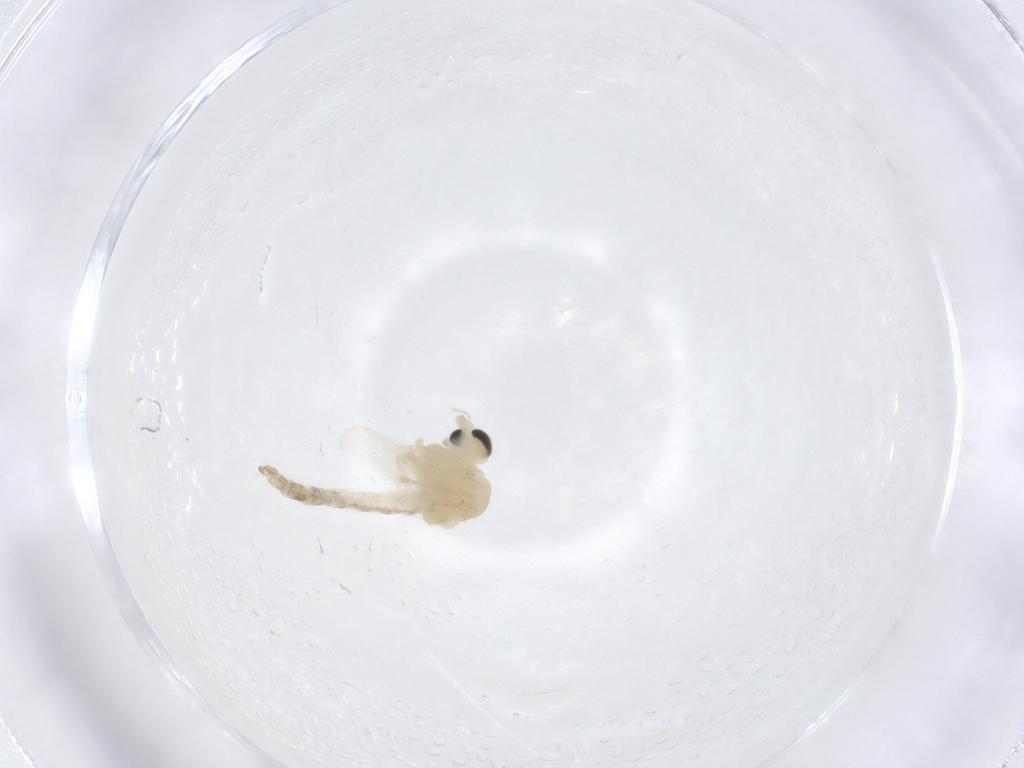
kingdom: Animalia
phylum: Arthropoda
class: Insecta
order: Diptera
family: Chironomidae
